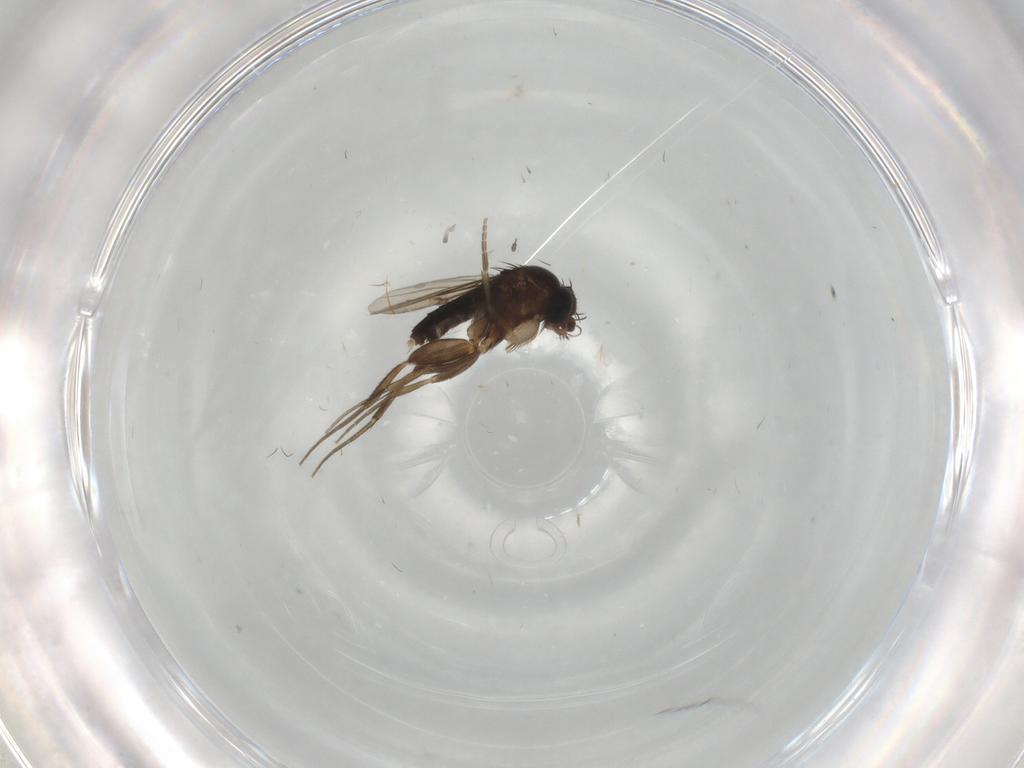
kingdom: Animalia
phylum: Arthropoda
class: Insecta
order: Diptera
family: Phoridae
